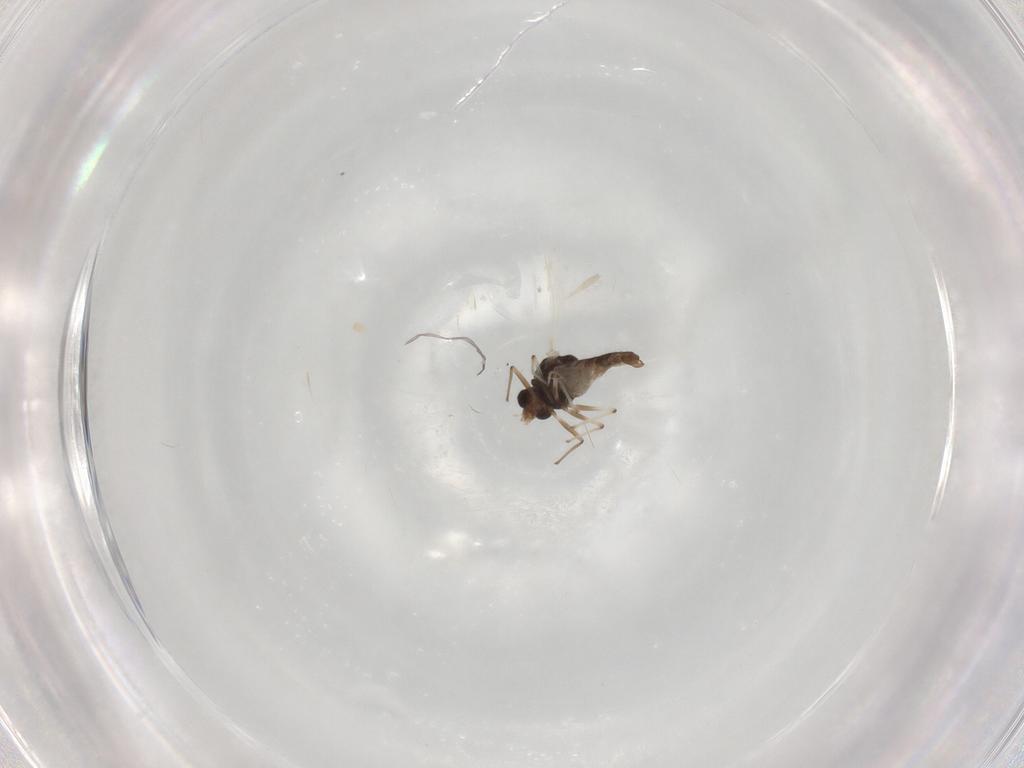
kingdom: Animalia
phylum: Arthropoda
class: Insecta
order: Diptera
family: Chironomidae
